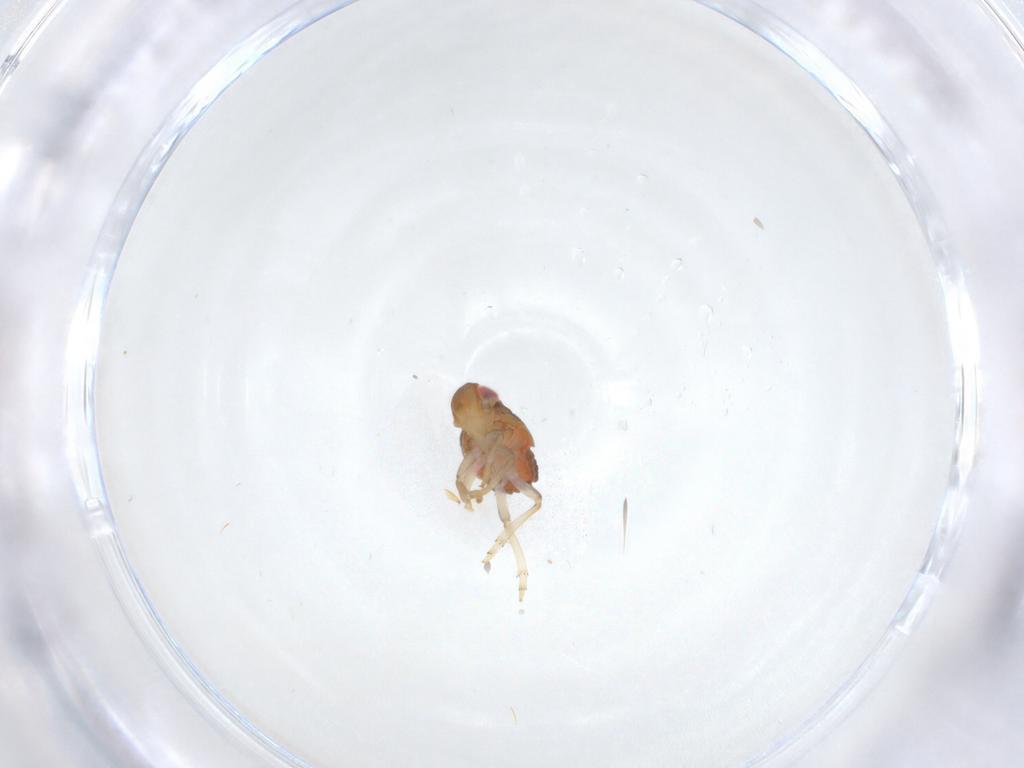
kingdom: Animalia
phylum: Arthropoda
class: Insecta
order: Hemiptera
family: Issidae
